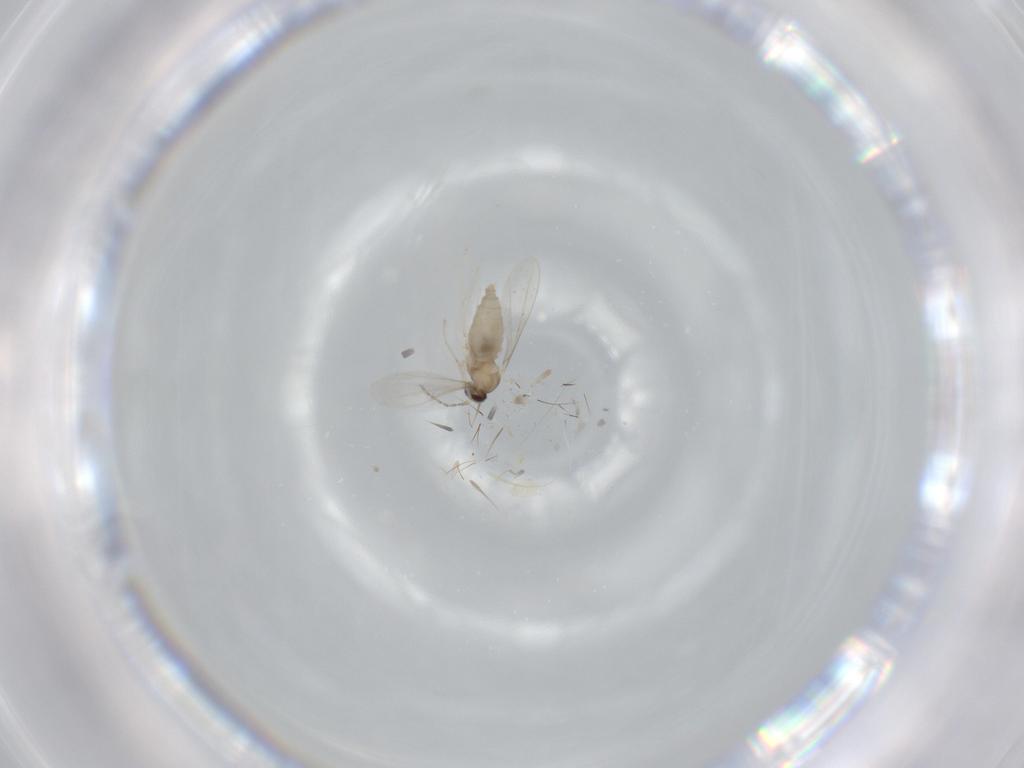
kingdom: Animalia
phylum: Arthropoda
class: Insecta
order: Diptera
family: Cecidomyiidae
